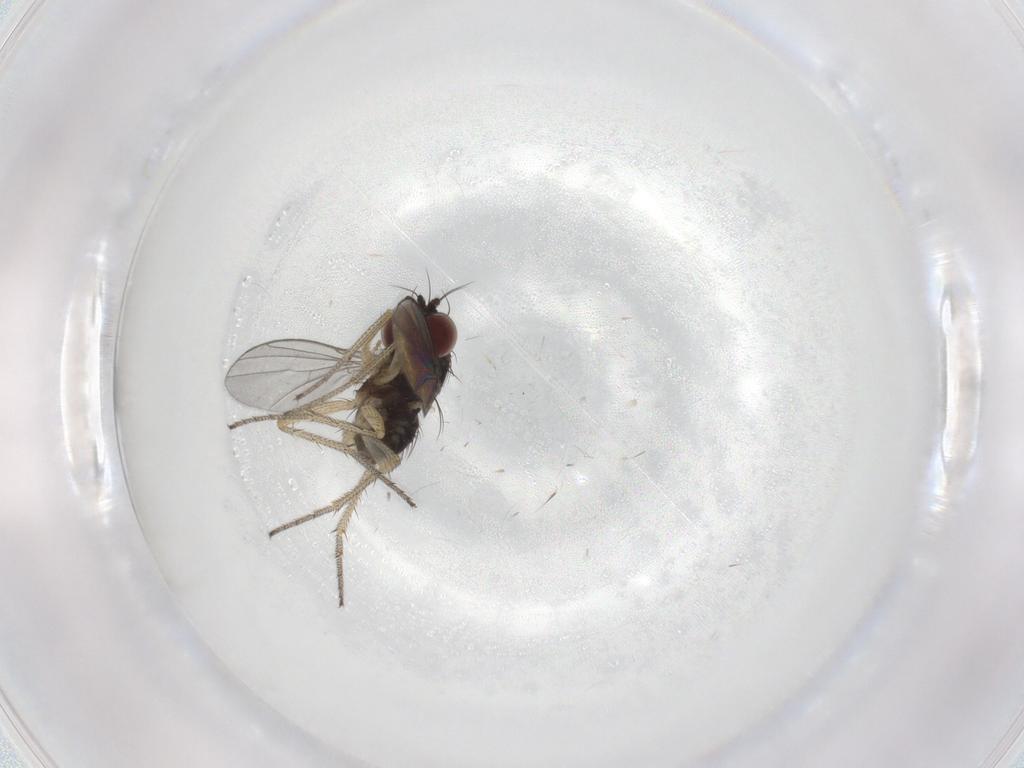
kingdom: Animalia
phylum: Arthropoda
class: Insecta
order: Diptera
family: Chironomidae
